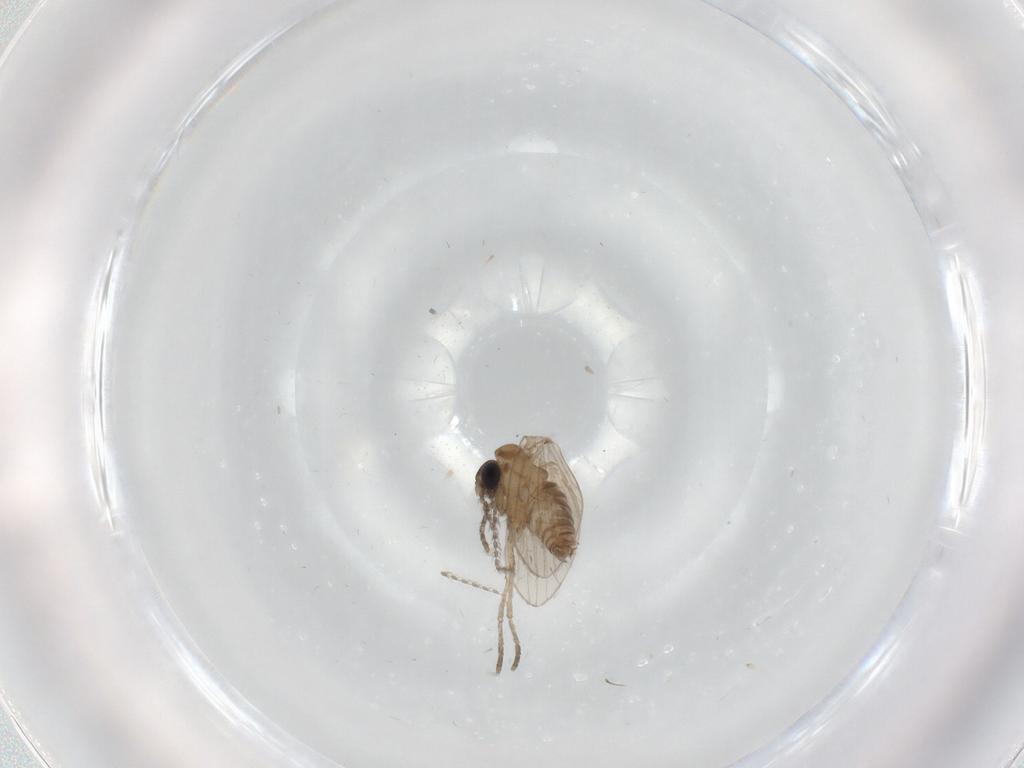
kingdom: Animalia
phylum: Arthropoda
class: Insecta
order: Diptera
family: Psychodidae
